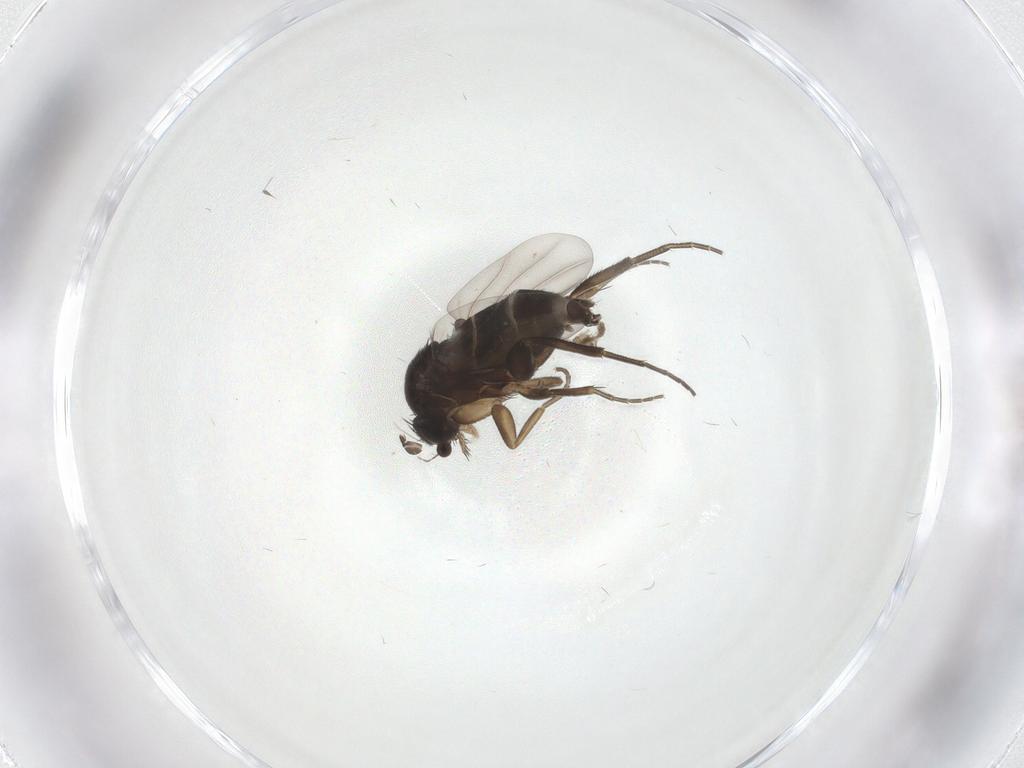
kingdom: Animalia
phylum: Arthropoda
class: Insecta
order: Diptera
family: Phoridae
